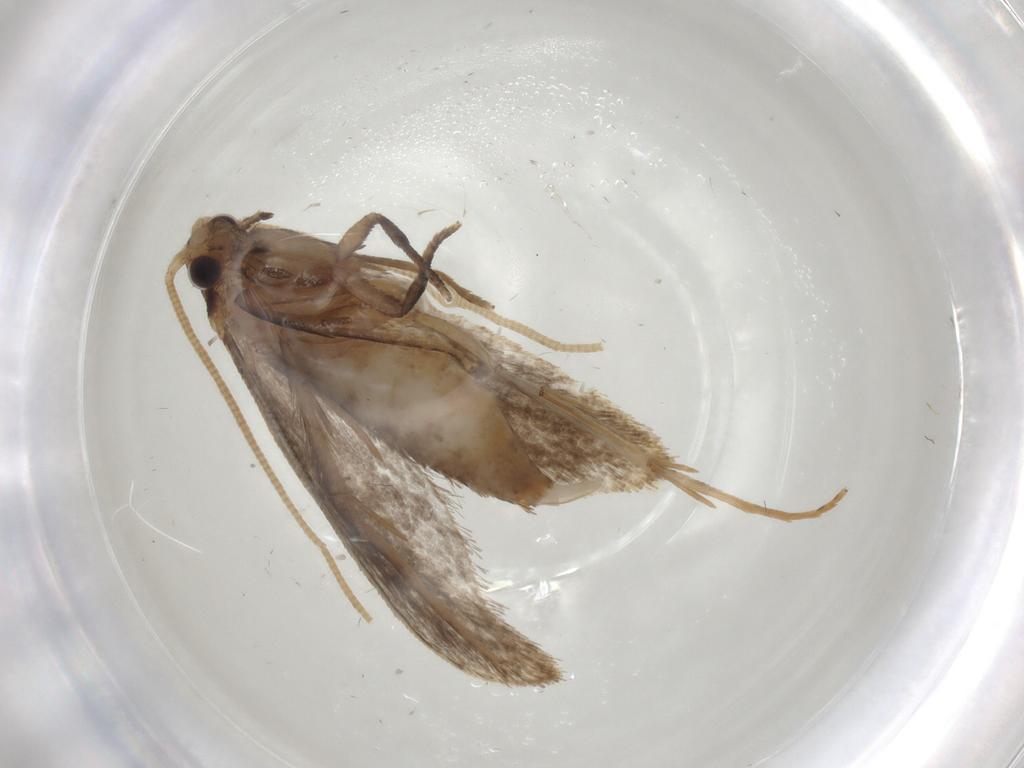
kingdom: Animalia
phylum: Arthropoda
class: Insecta
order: Lepidoptera
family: Tineidae
